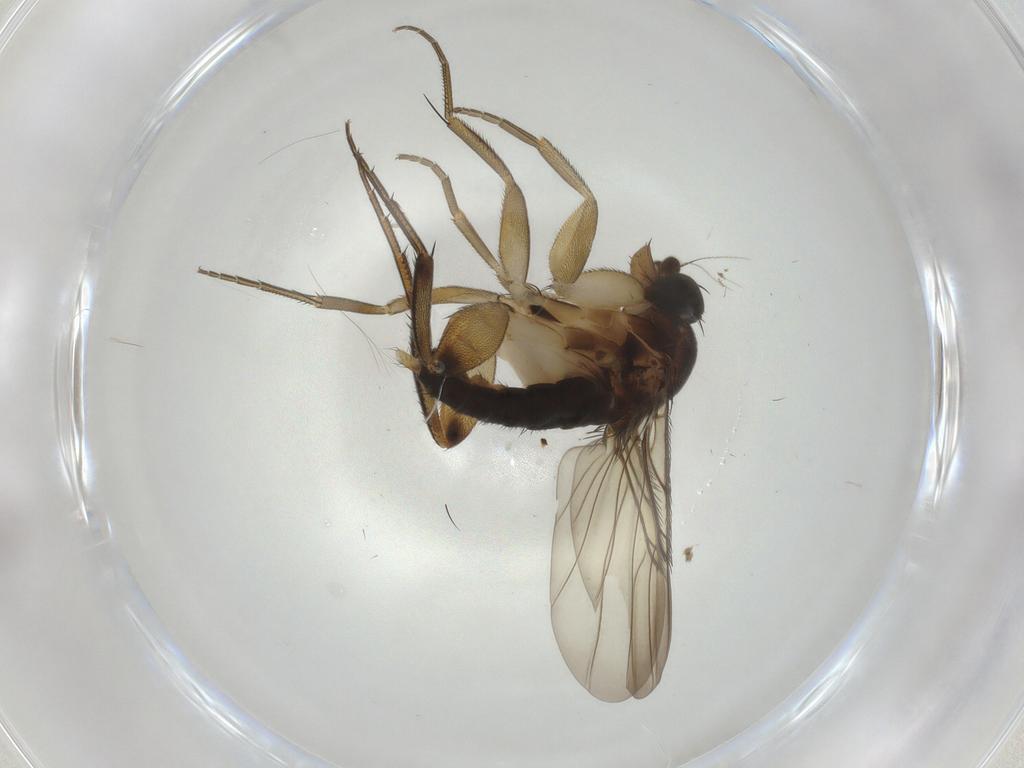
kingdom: Animalia
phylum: Arthropoda
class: Insecta
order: Diptera
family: Phoridae
